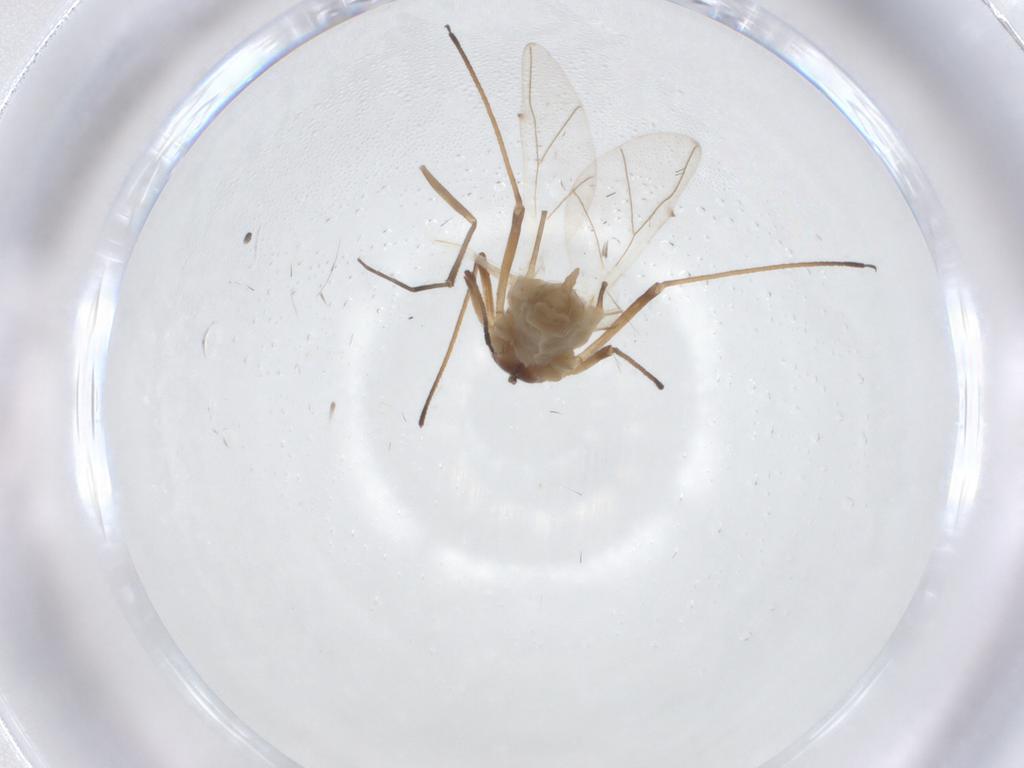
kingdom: Animalia
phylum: Arthropoda
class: Insecta
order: Hemiptera
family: Aphididae
